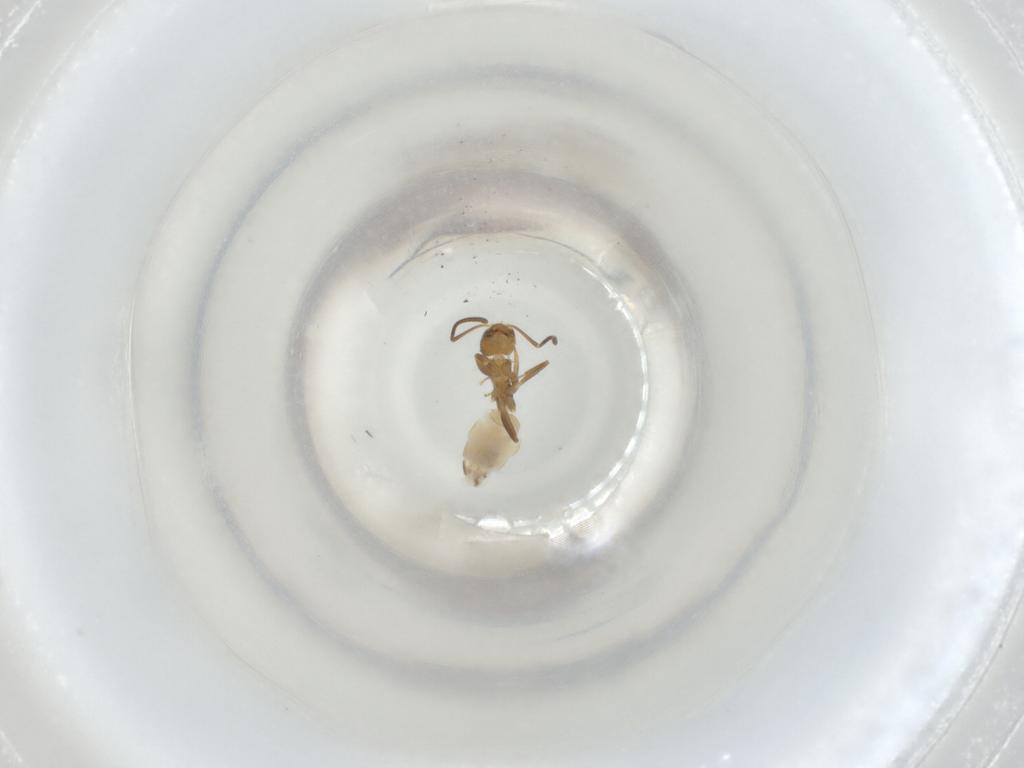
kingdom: Animalia
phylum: Arthropoda
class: Insecta
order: Hymenoptera
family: Formicidae
